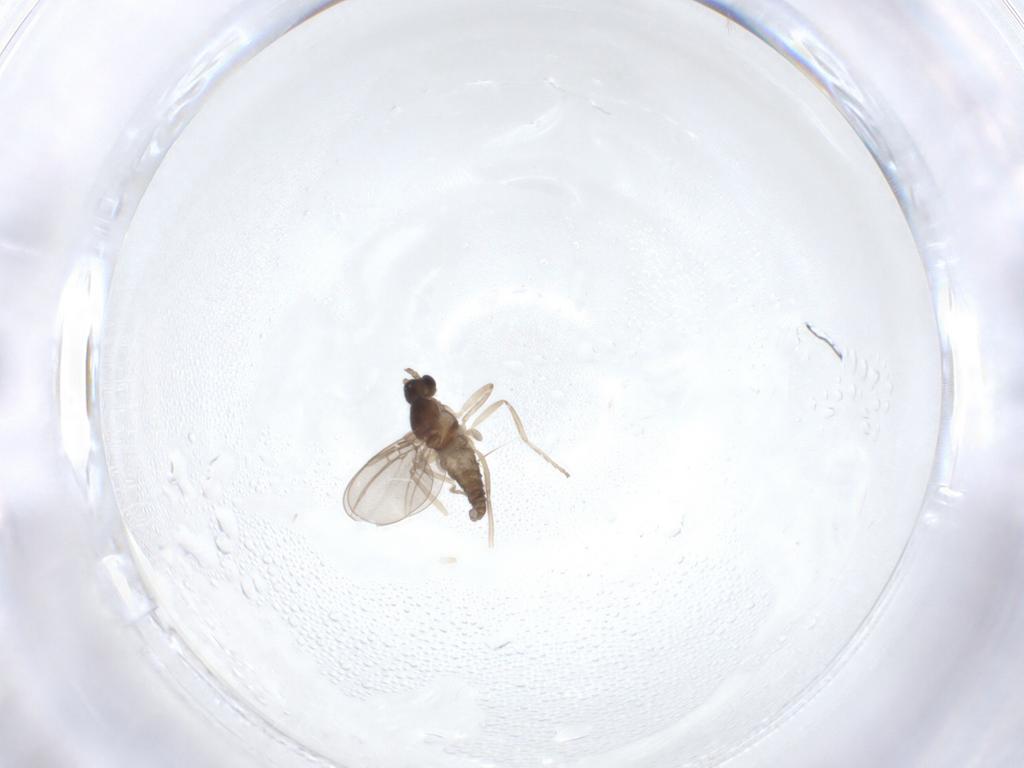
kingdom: Animalia
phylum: Arthropoda
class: Insecta
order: Diptera
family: Cecidomyiidae
